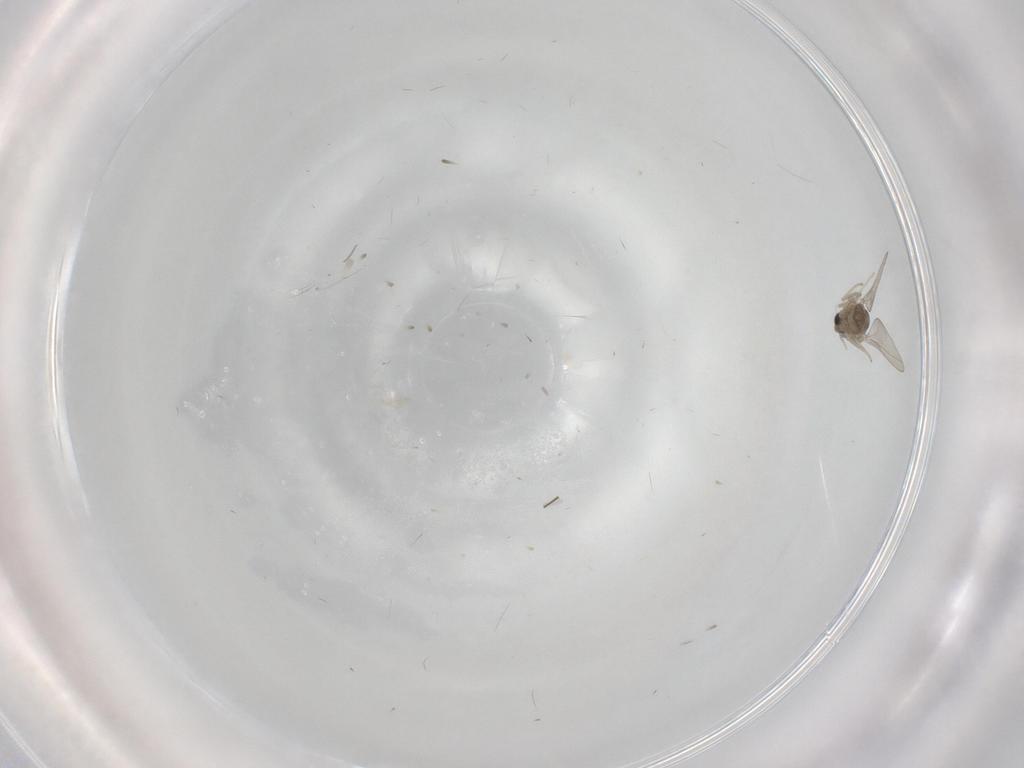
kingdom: Animalia
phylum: Arthropoda
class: Insecta
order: Diptera
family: Cecidomyiidae
